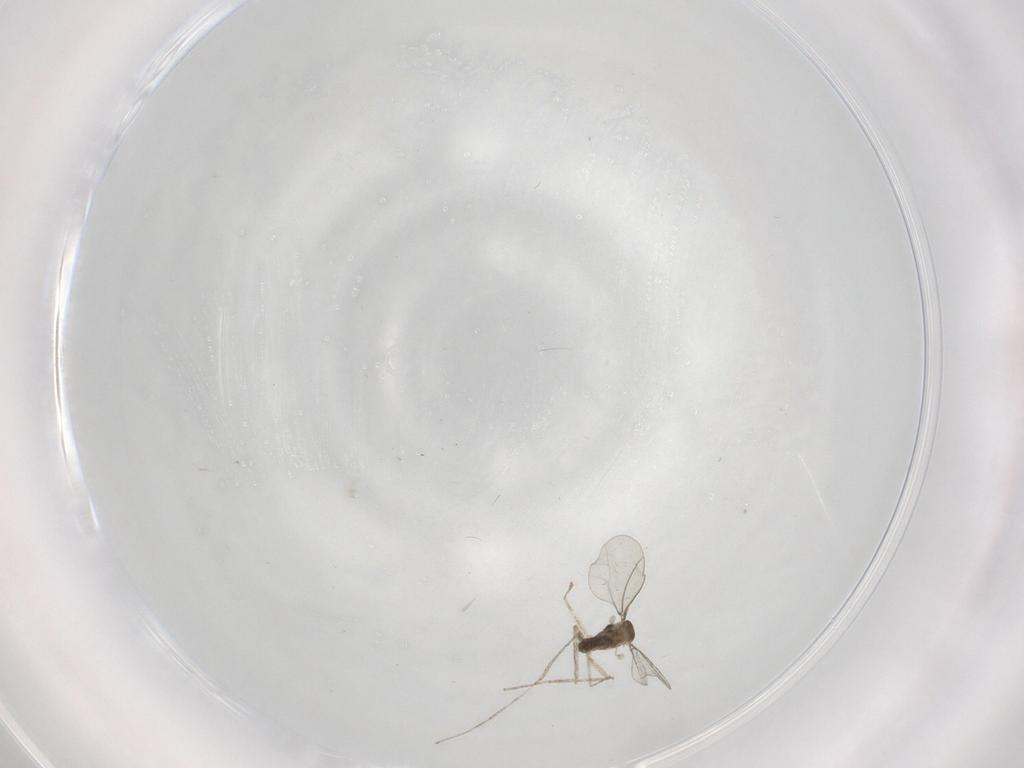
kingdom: Animalia
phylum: Arthropoda
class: Insecta
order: Diptera
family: Cecidomyiidae
